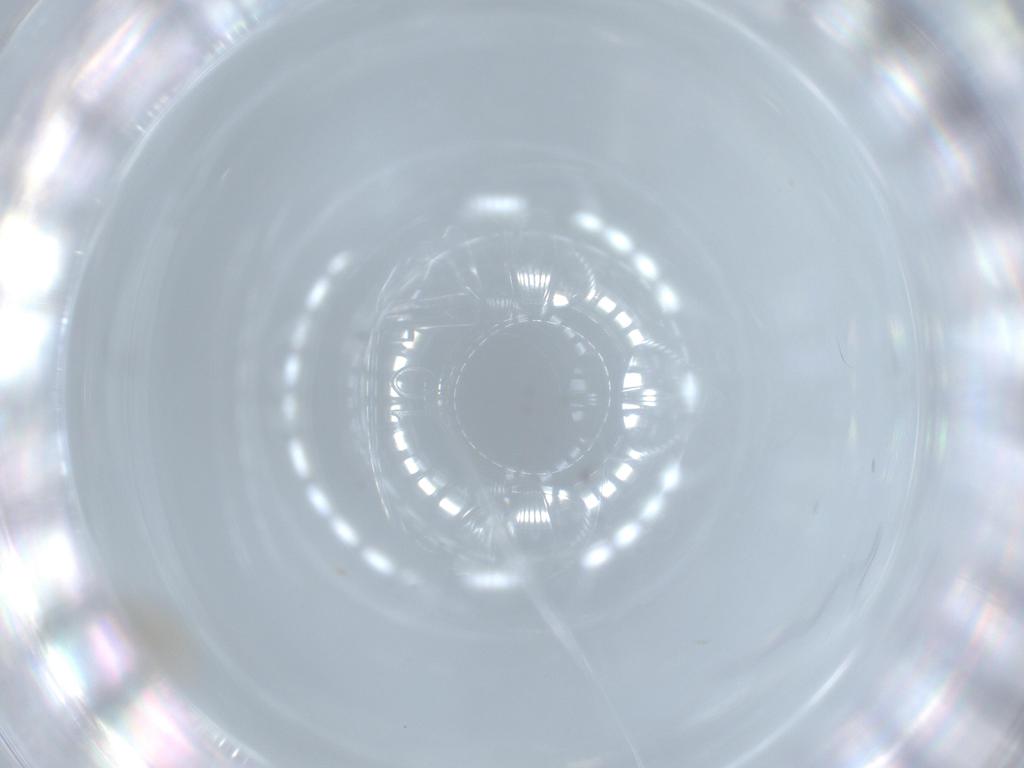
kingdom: Animalia
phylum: Arthropoda
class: Insecta
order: Diptera
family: Cecidomyiidae
